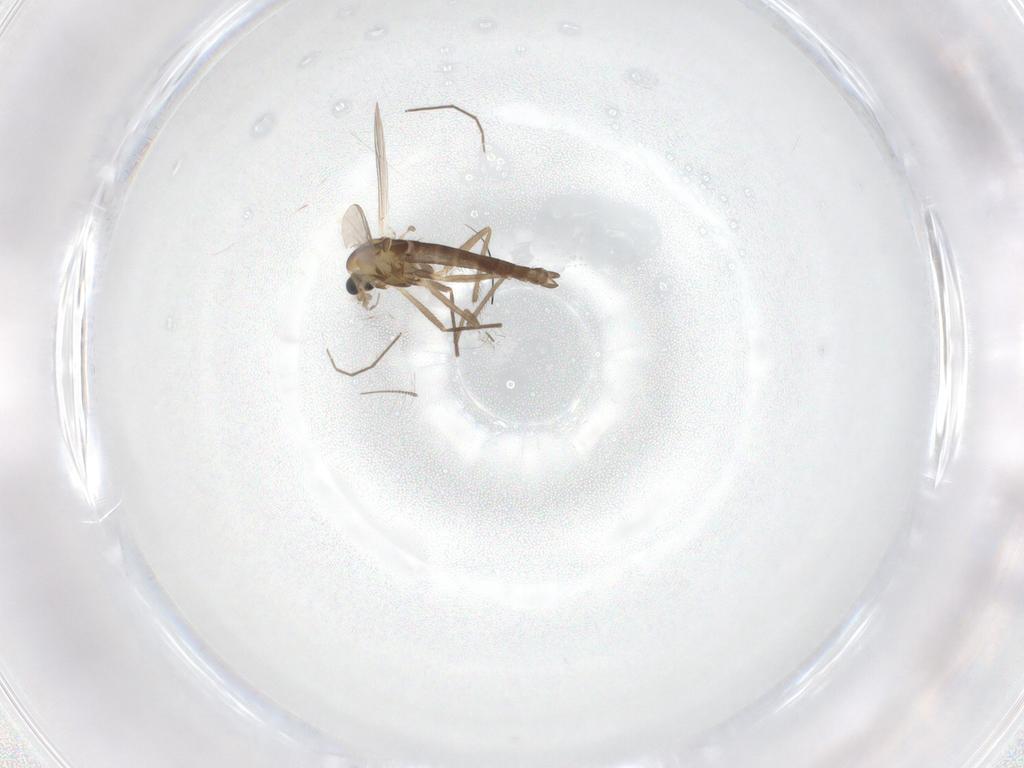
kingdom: Animalia
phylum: Arthropoda
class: Insecta
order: Diptera
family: Chironomidae
